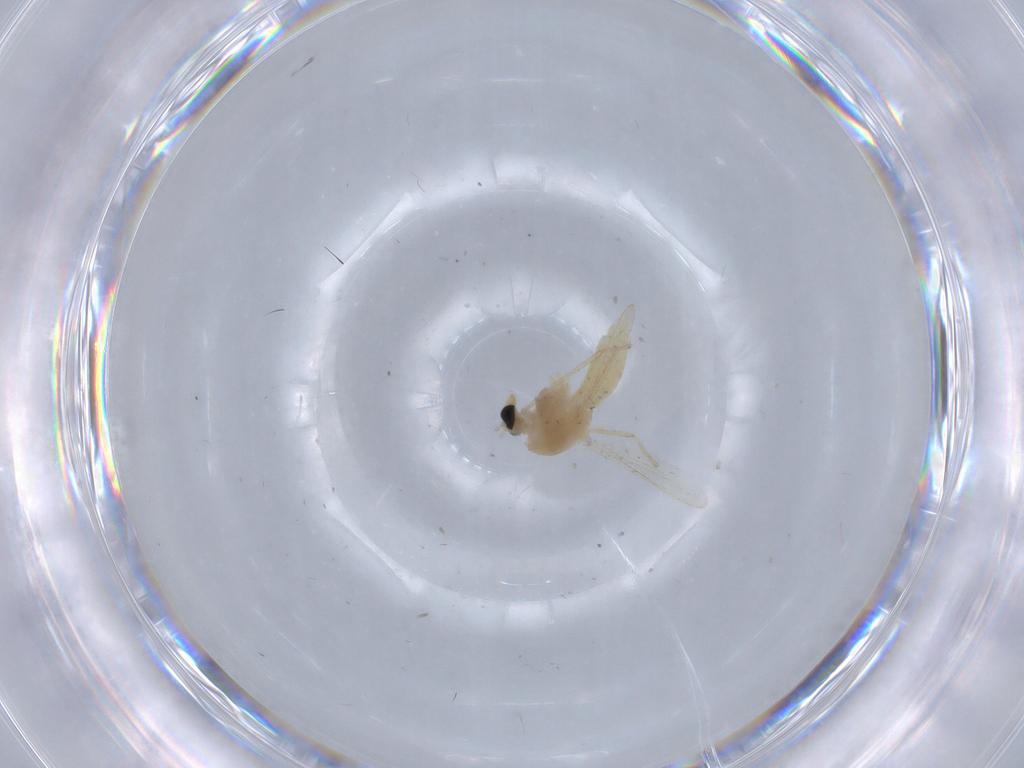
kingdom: Animalia
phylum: Arthropoda
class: Insecta
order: Diptera
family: Chironomidae
